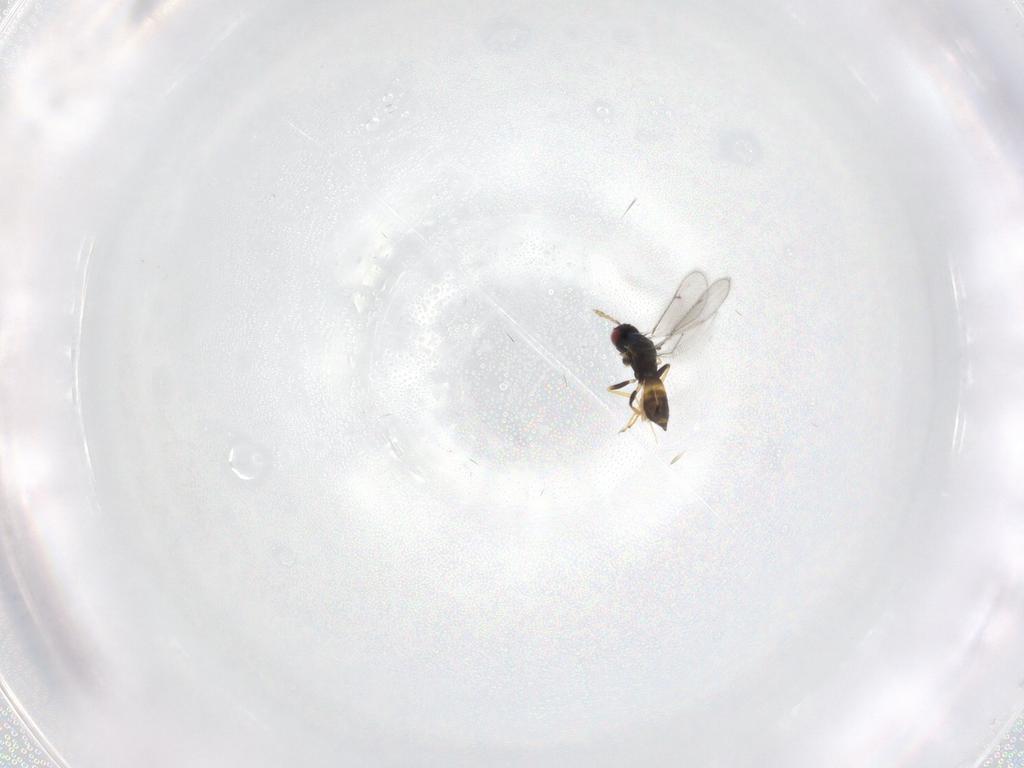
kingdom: Animalia
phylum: Arthropoda
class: Insecta
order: Hymenoptera
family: Eulophidae
